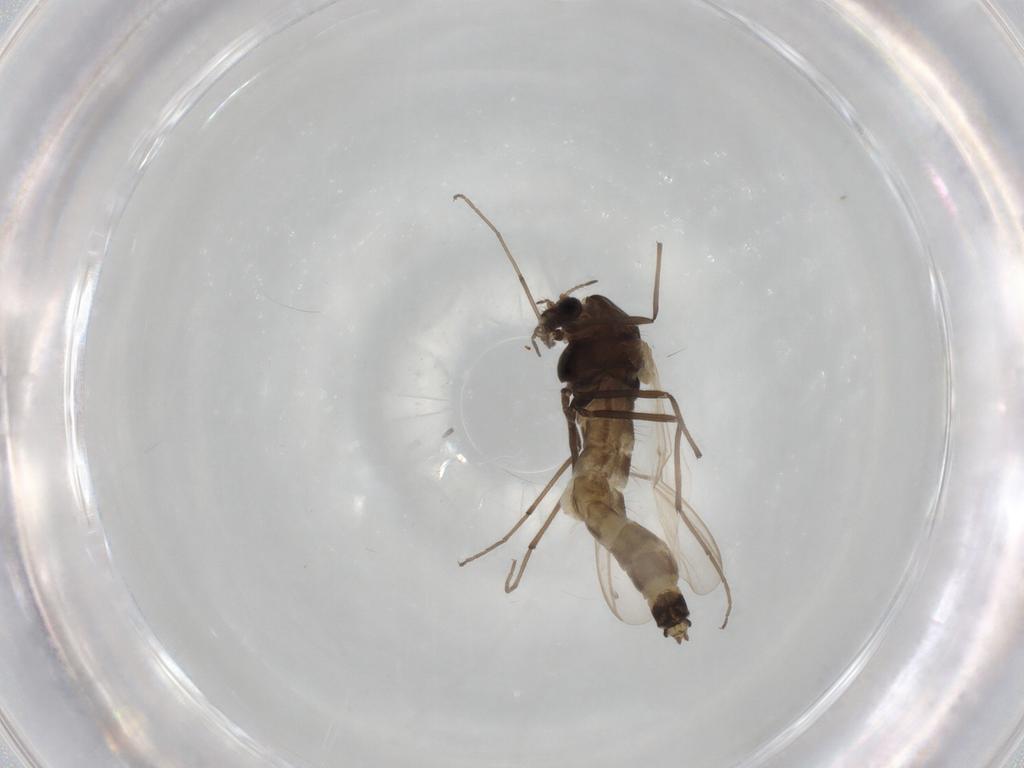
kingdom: Animalia
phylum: Arthropoda
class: Insecta
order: Diptera
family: Chironomidae
